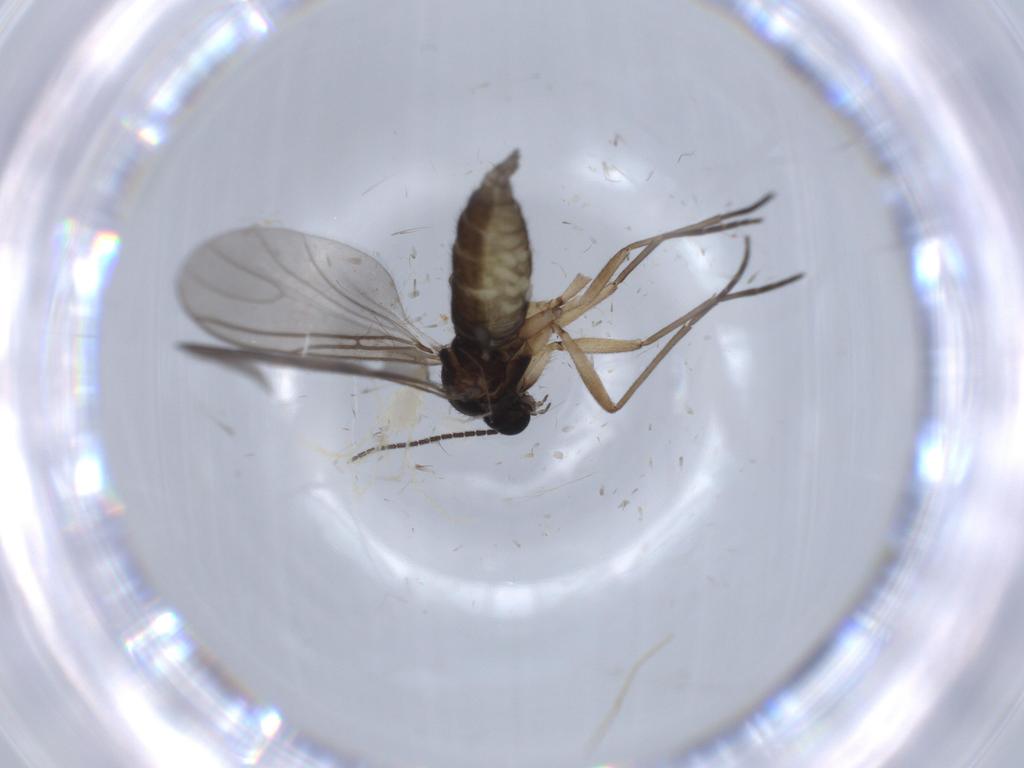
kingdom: Animalia
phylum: Arthropoda
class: Insecta
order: Diptera
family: Sciaridae
